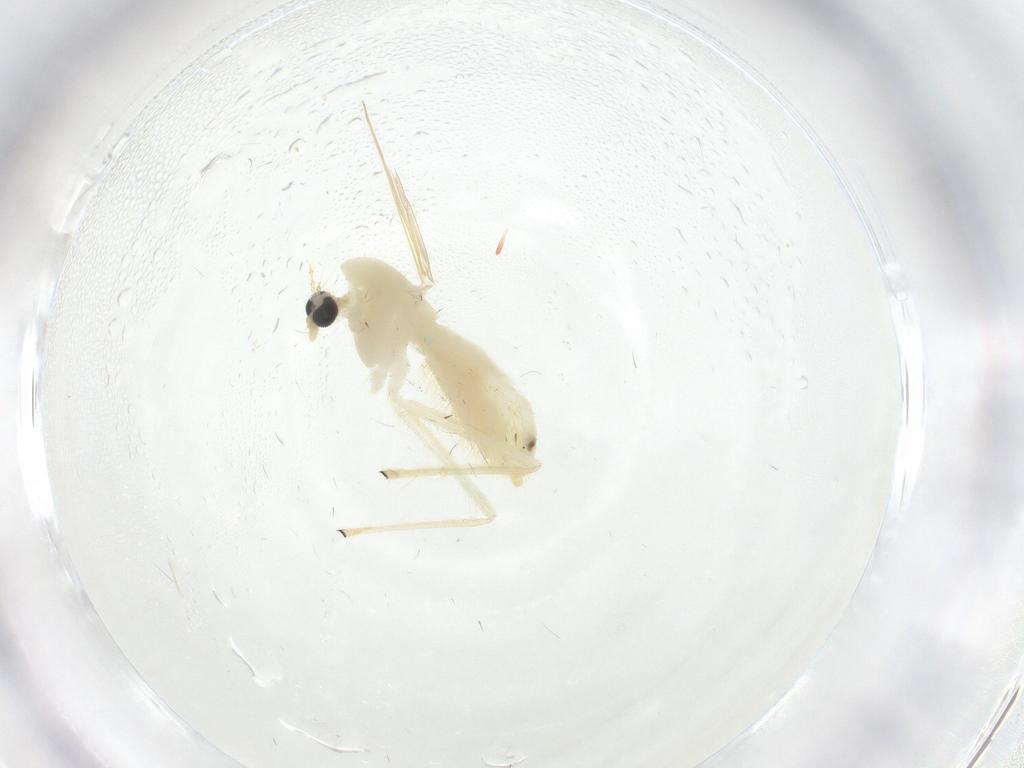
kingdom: Animalia
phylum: Arthropoda
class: Insecta
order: Diptera
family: Chironomidae
